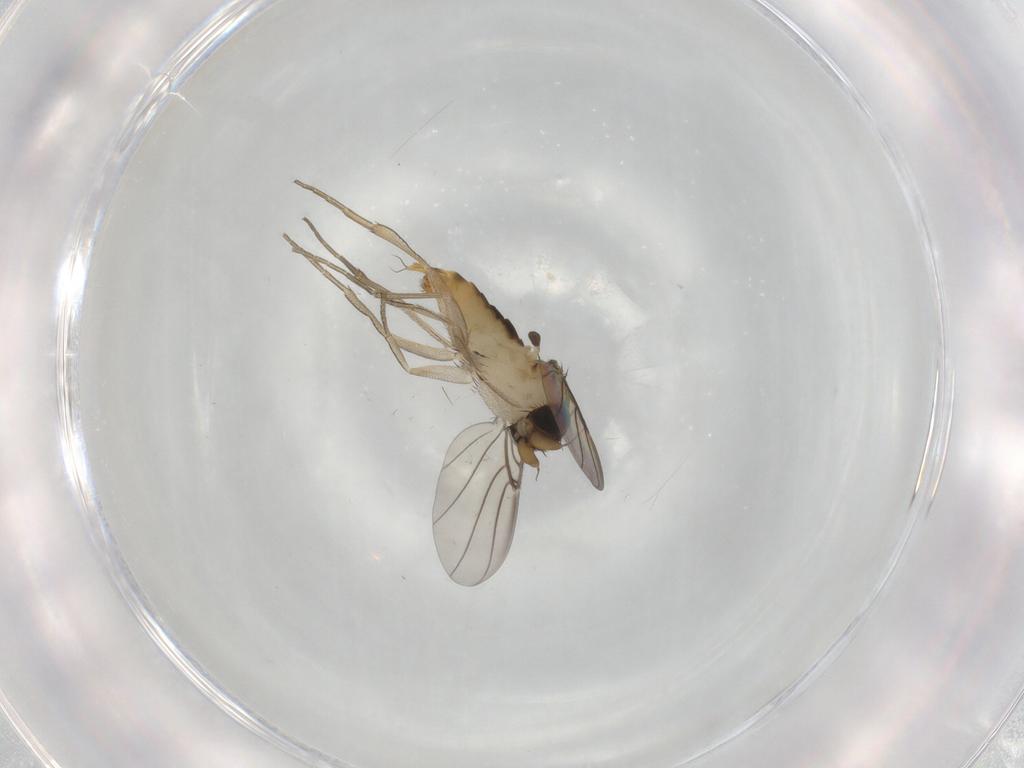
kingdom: Animalia
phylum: Arthropoda
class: Insecta
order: Diptera
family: Phoridae
